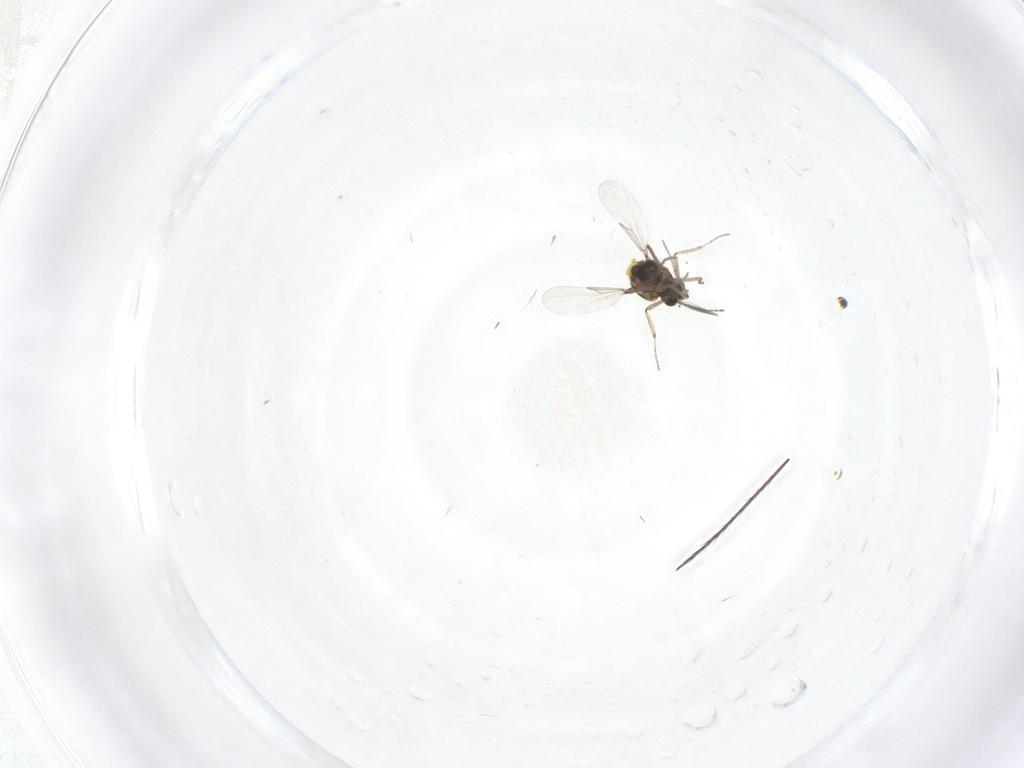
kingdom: Animalia
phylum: Arthropoda
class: Insecta
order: Diptera
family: Ceratopogonidae
